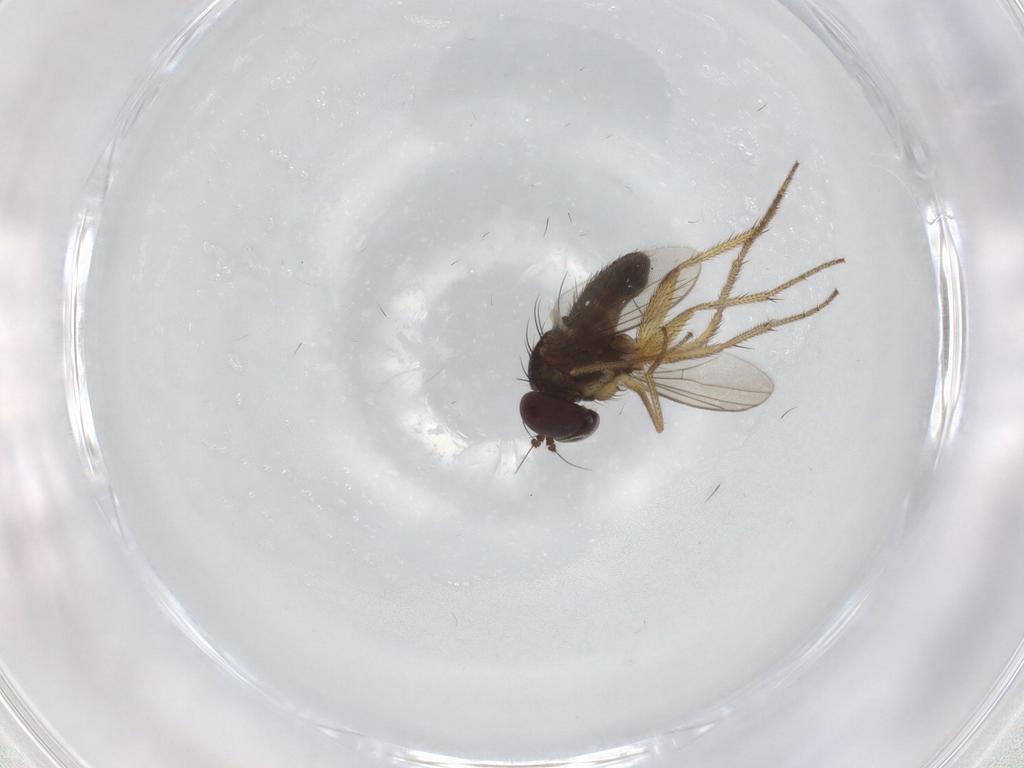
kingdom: Animalia
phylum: Arthropoda
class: Insecta
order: Diptera
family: Dolichopodidae
